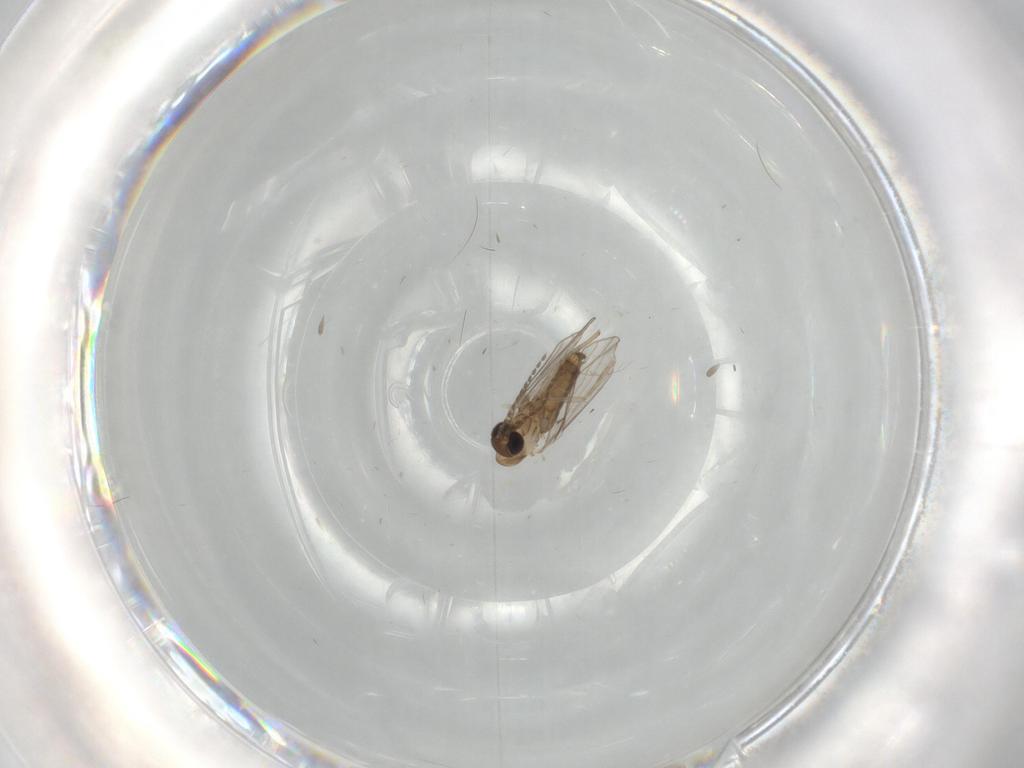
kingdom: Animalia
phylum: Arthropoda
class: Insecta
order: Diptera
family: Psychodidae
